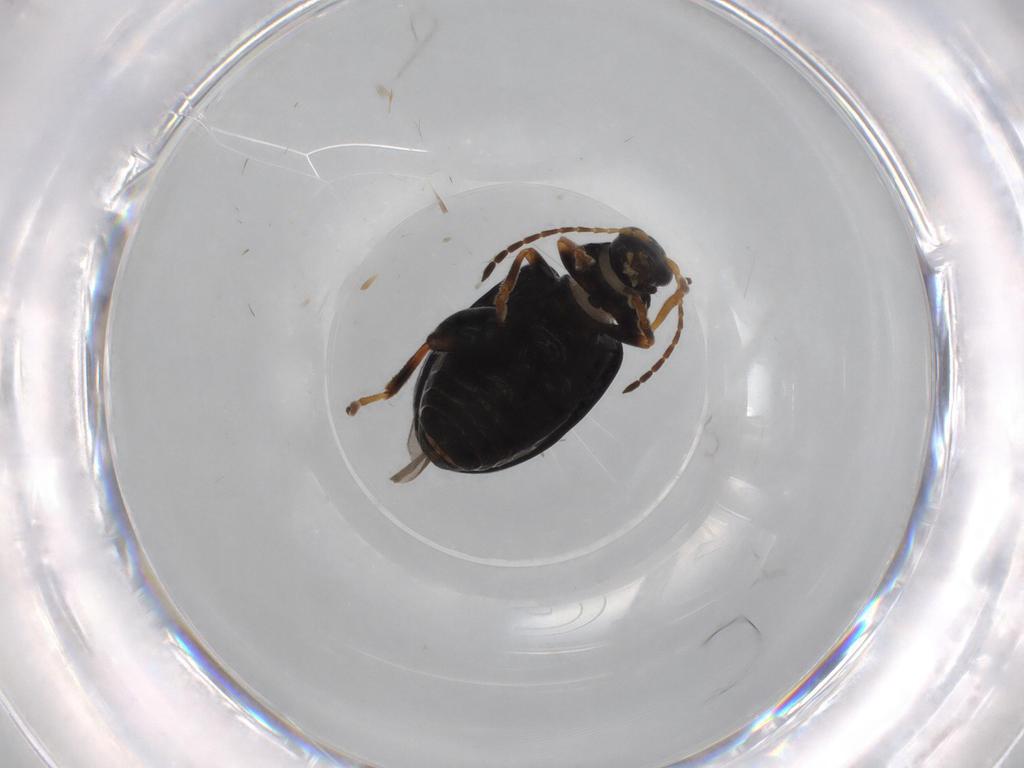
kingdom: Animalia
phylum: Arthropoda
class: Insecta
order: Coleoptera
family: Chrysomelidae
